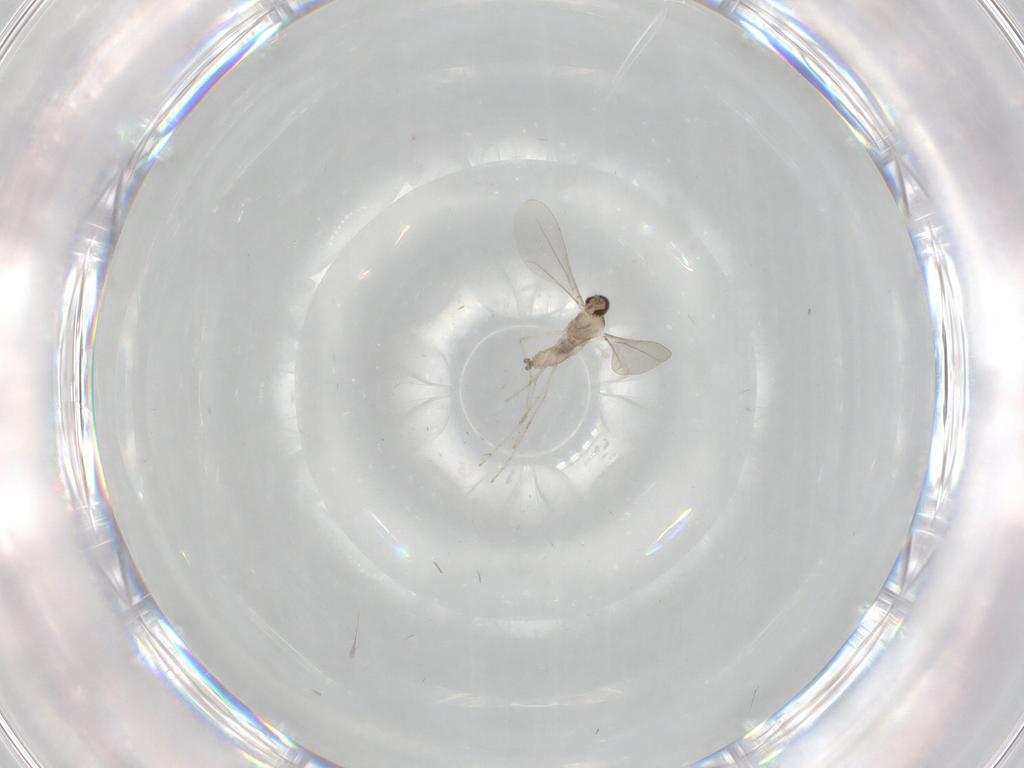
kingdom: Animalia
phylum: Arthropoda
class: Insecta
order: Diptera
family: Cecidomyiidae
